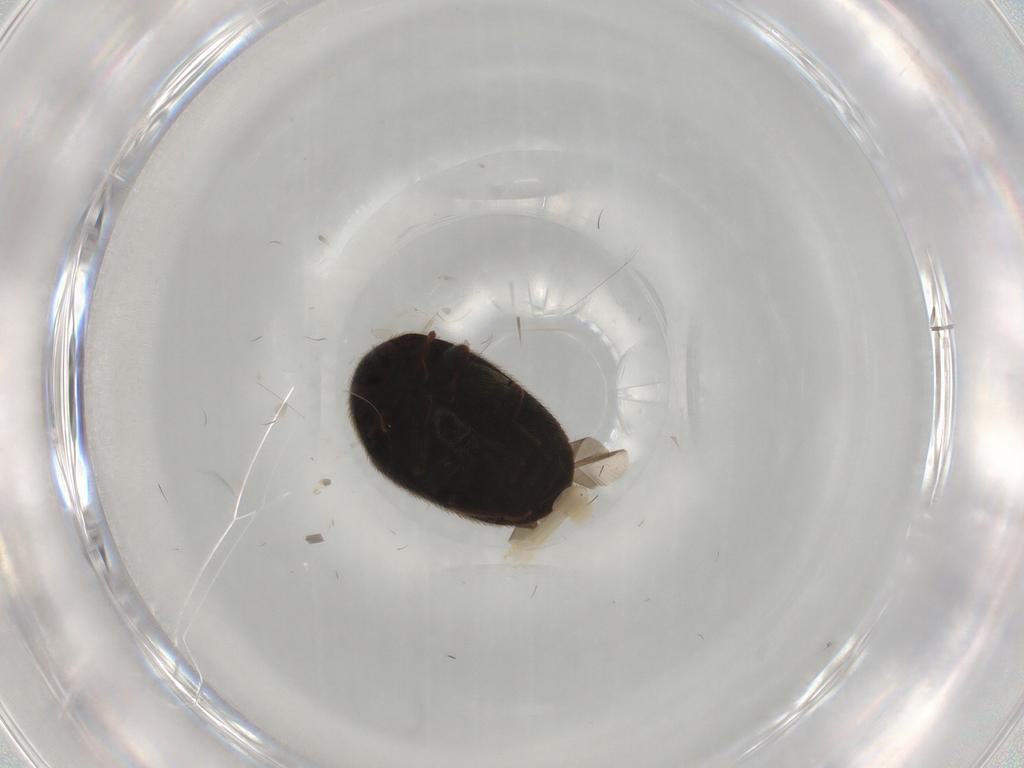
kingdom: Animalia
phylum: Arthropoda
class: Insecta
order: Coleoptera
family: Dermestidae
